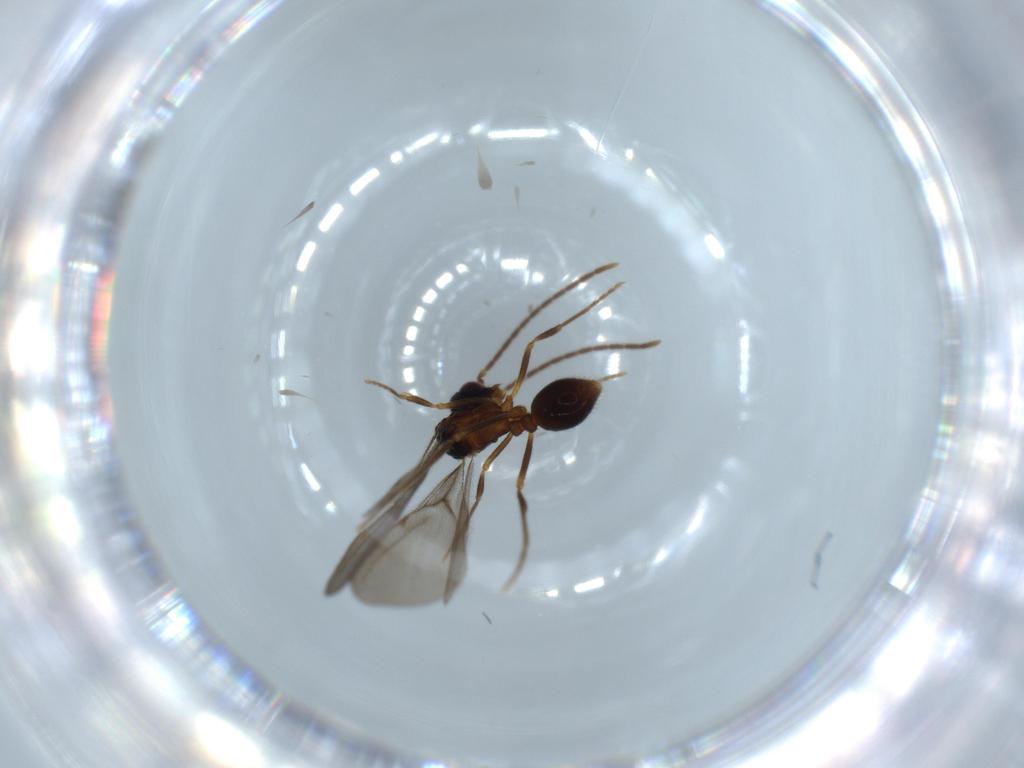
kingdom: Animalia
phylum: Arthropoda
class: Insecta
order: Hymenoptera
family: Formicidae
